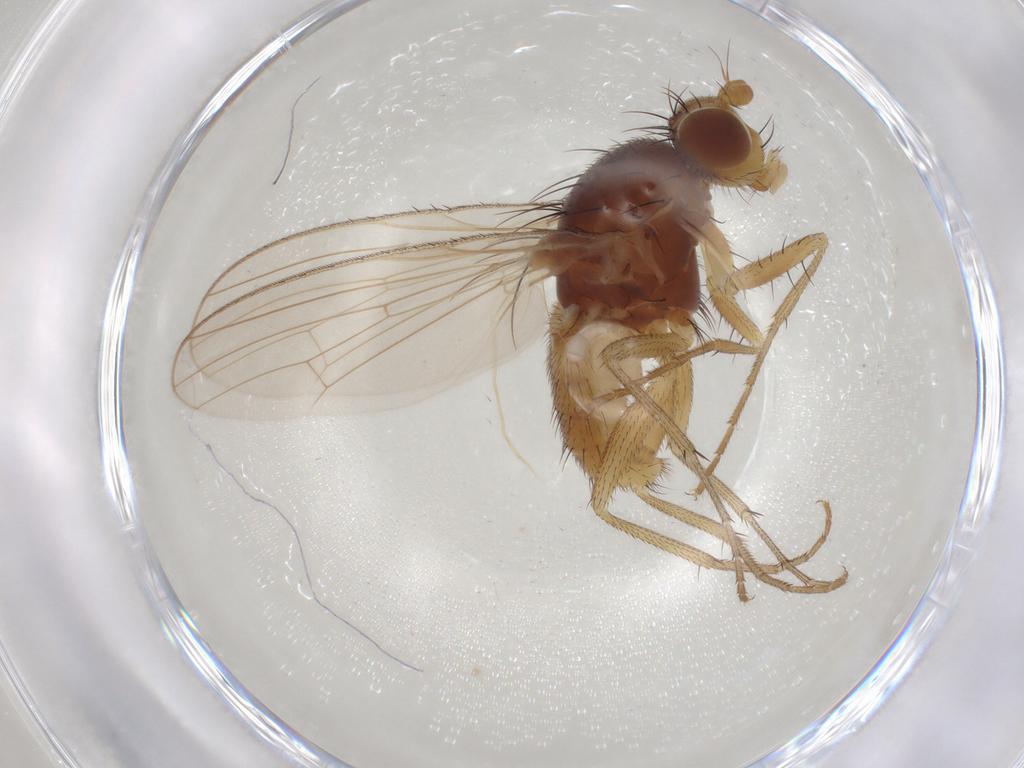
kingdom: Animalia
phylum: Arthropoda
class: Insecta
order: Diptera
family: Heleomyzidae
